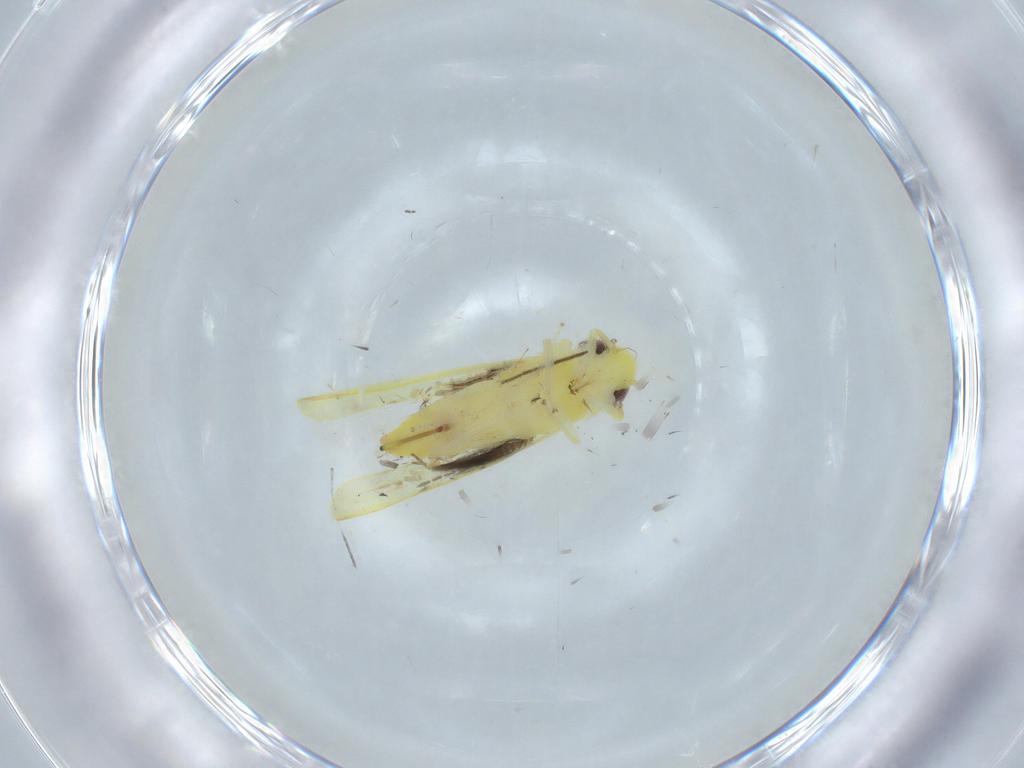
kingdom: Animalia
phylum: Arthropoda
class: Insecta
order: Hemiptera
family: Cicadellidae
